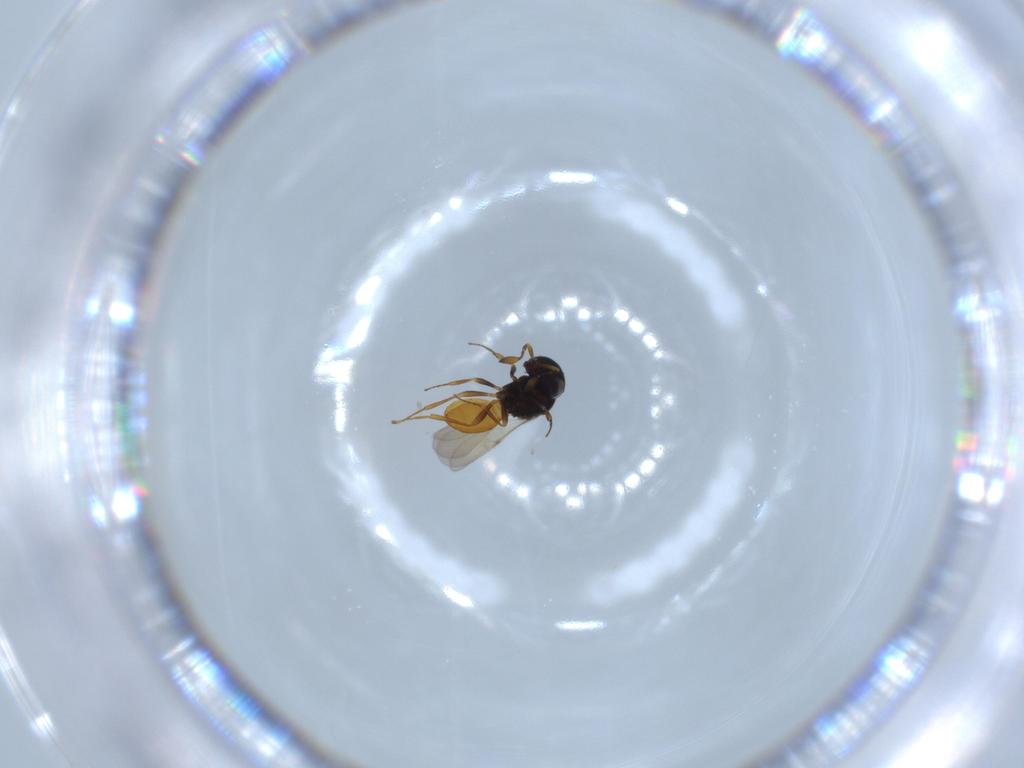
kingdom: Animalia
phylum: Arthropoda
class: Insecta
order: Hymenoptera
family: Scelionidae
